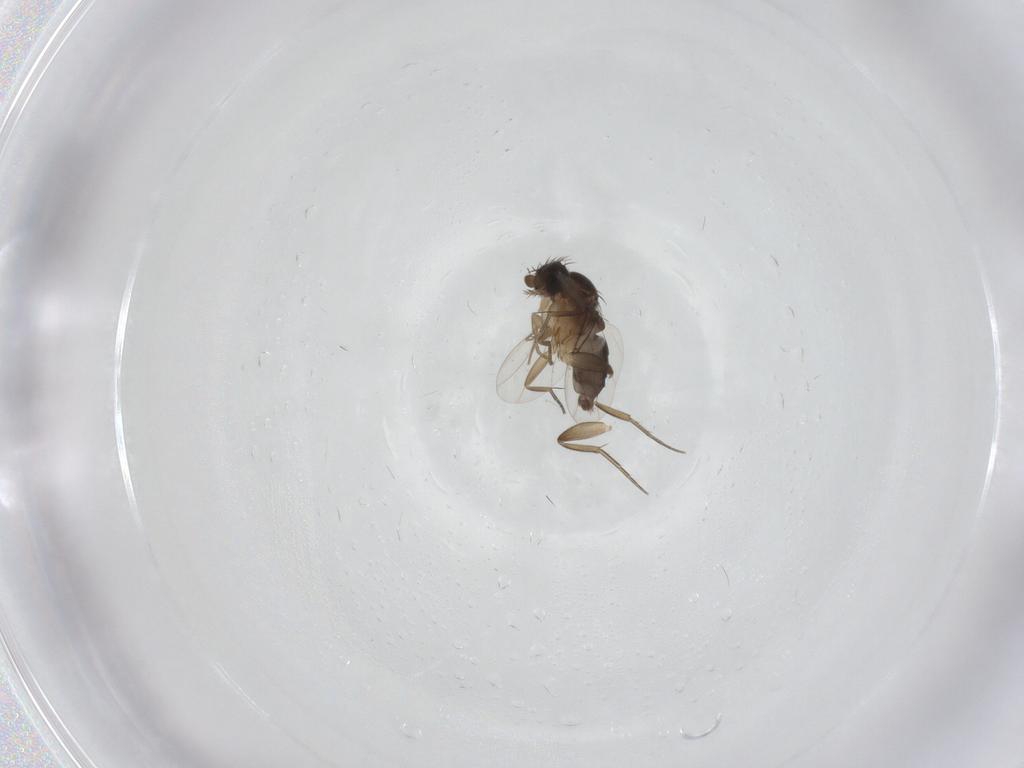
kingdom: Animalia
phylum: Arthropoda
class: Insecta
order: Diptera
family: Phoridae
